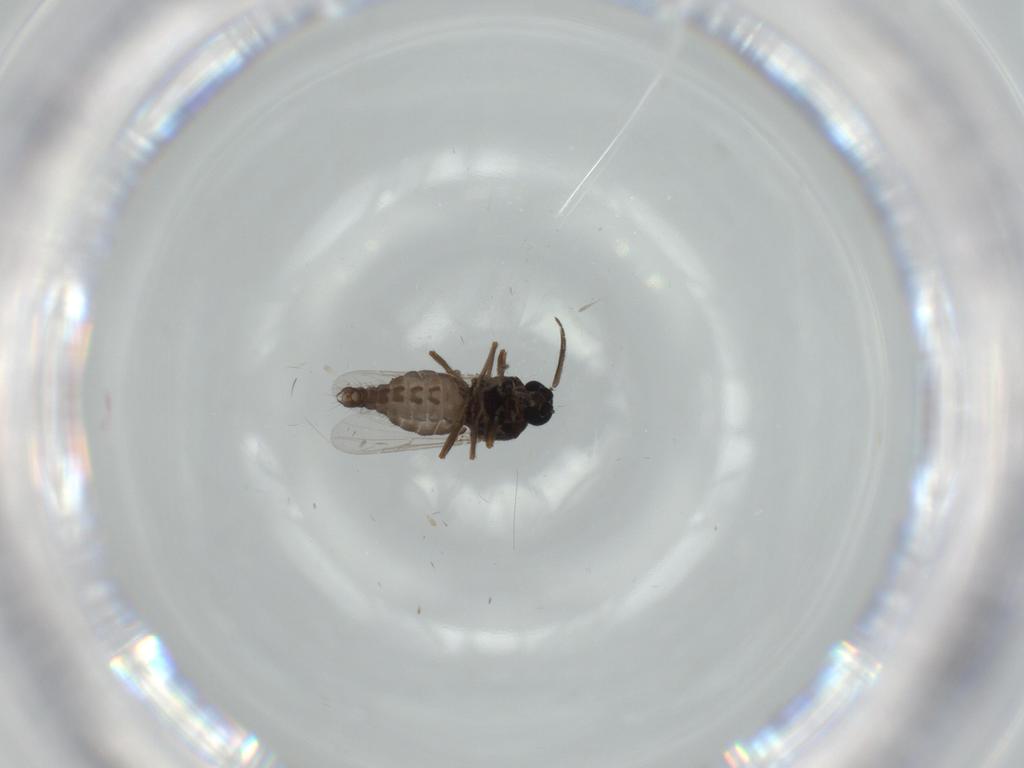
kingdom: Animalia
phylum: Arthropoda
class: Insecta
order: Diptera
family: Ceratopogonidae
